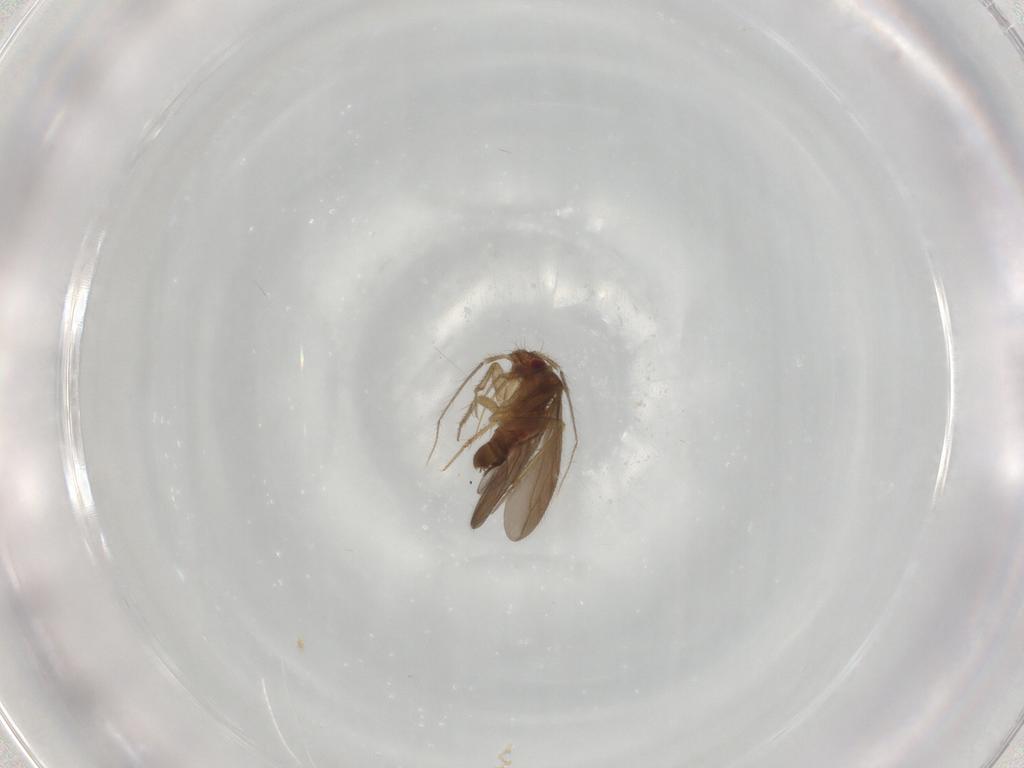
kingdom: Animalia
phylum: Arthropoda
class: Insecta
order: Hemiptera
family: Ceratocombidae
